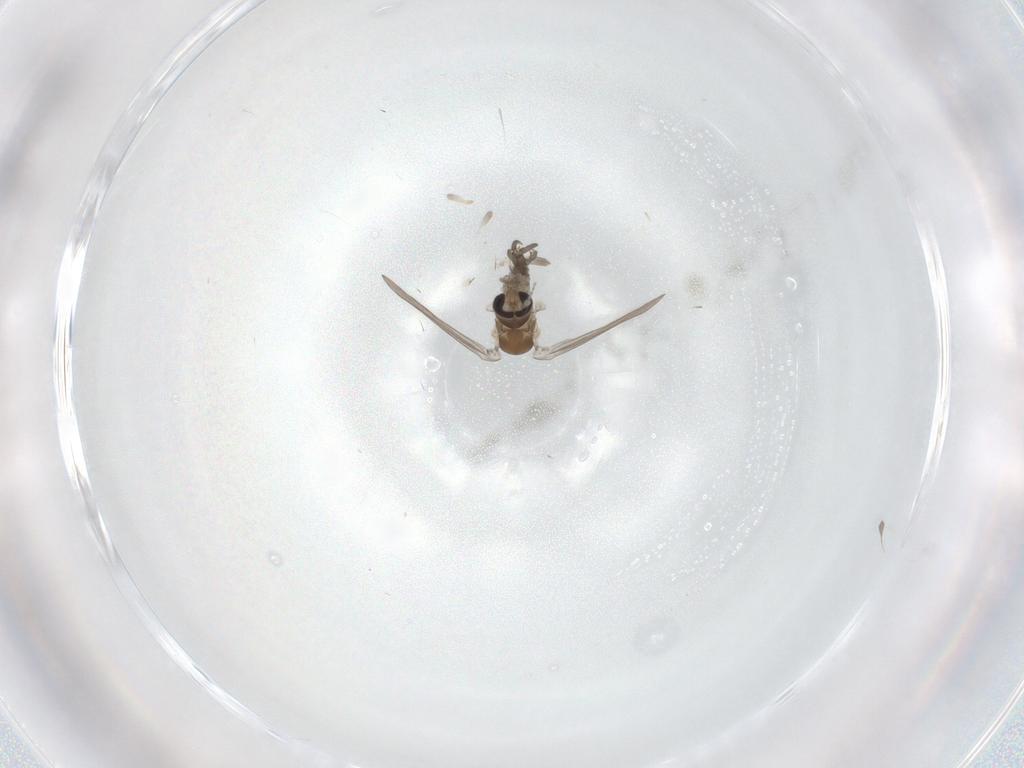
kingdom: Animalia
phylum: Arthropoda
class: Insecta
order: Diptera
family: Psychodidae
